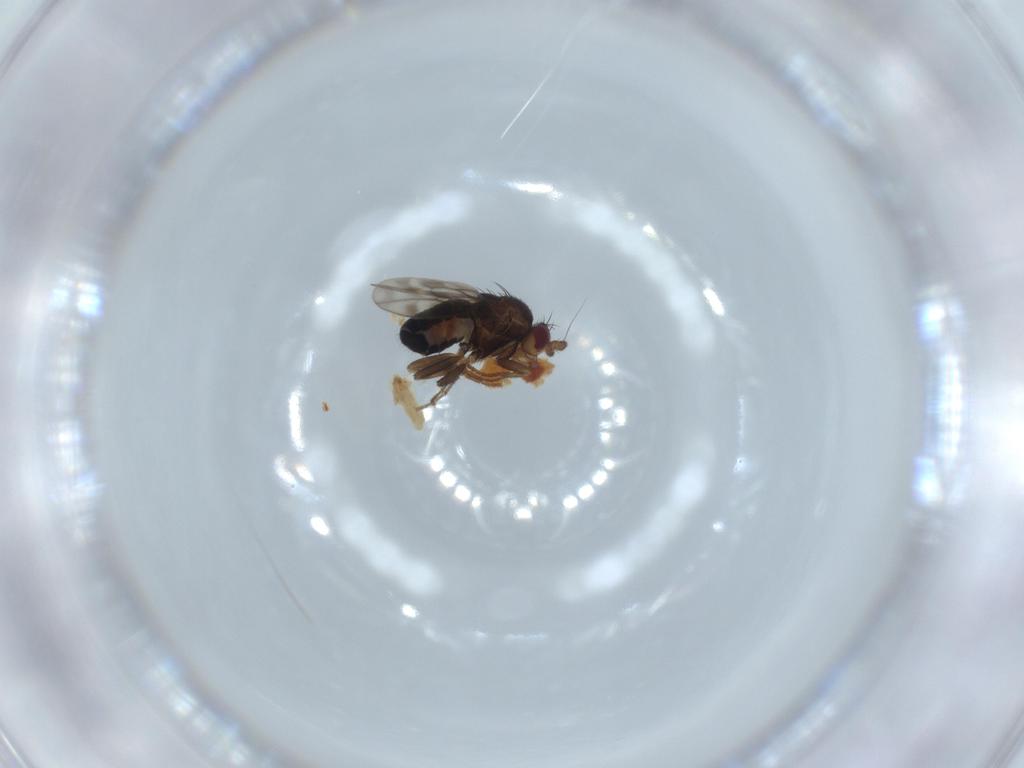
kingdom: Animalia
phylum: Arthropoda
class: Insecta
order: Diptera
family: Sphaeroceridae
